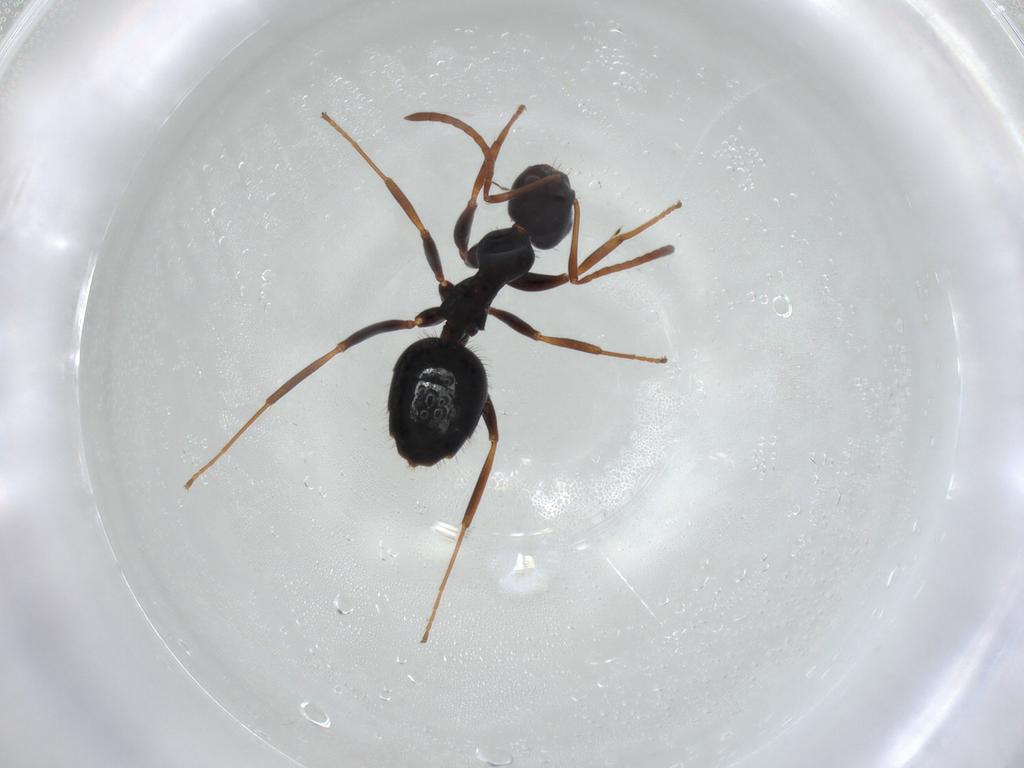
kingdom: Animalia
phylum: Arthropoda
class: Insecta
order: Hymenoptera
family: Formicidae
